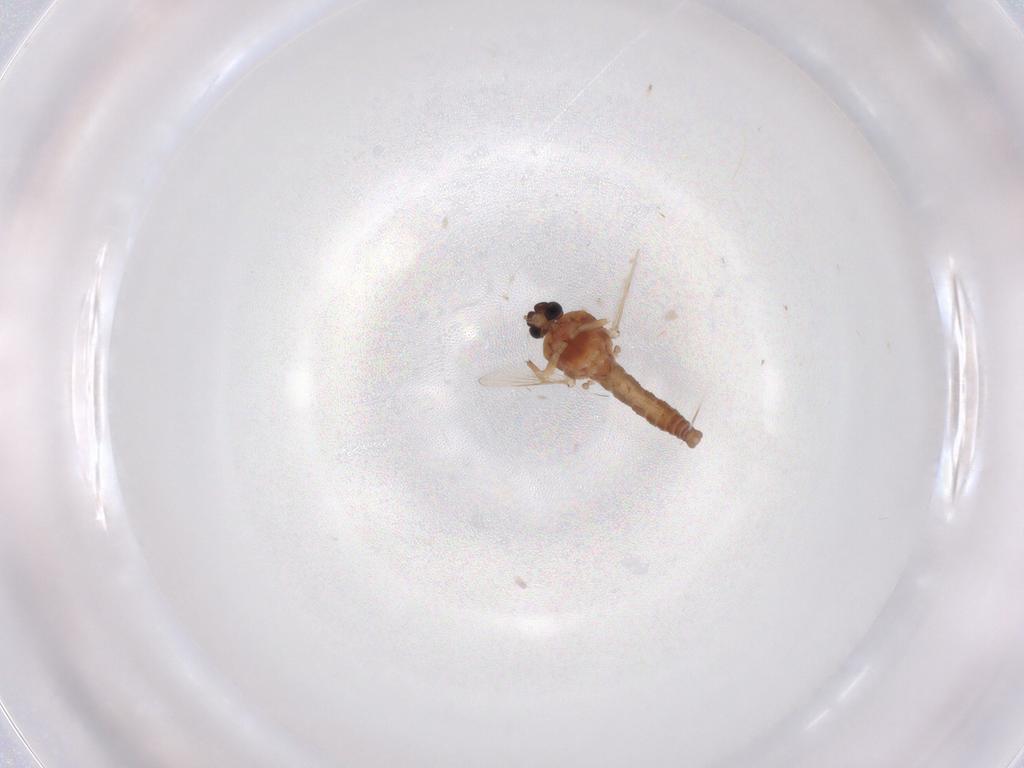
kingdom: Animalia
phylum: Arthropoda
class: Insecta
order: Diptera
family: Ceratopogonidae
